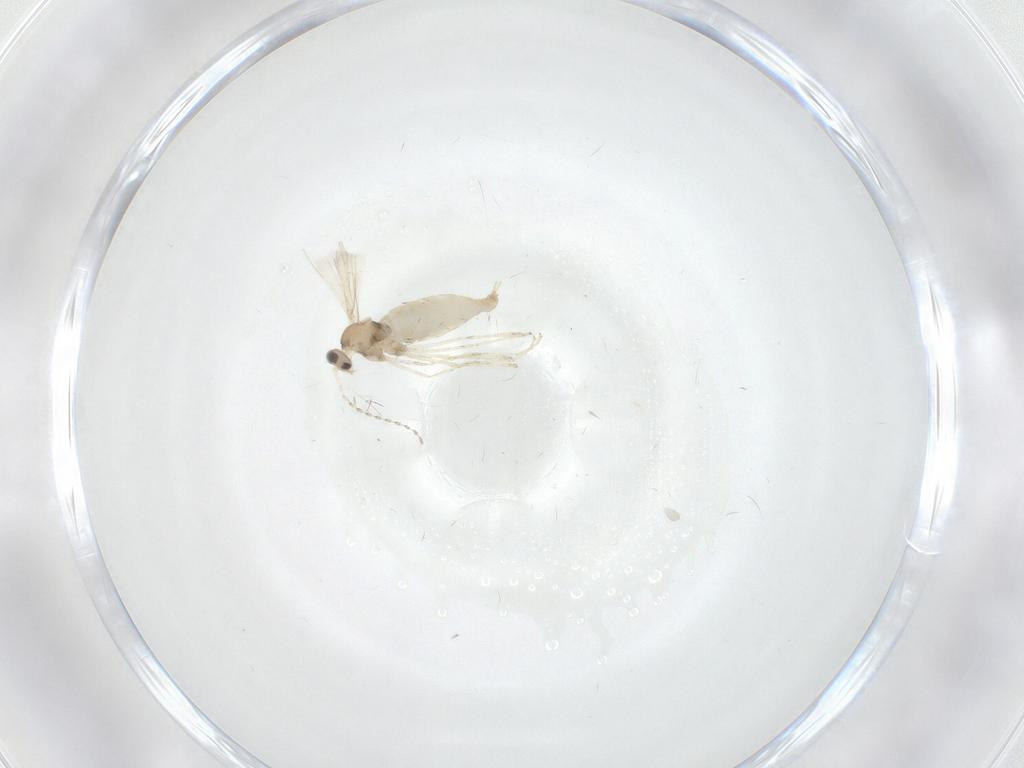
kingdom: Animalia
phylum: Arthropoda
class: Insecta
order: Diptera
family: Cecidomyiidae
